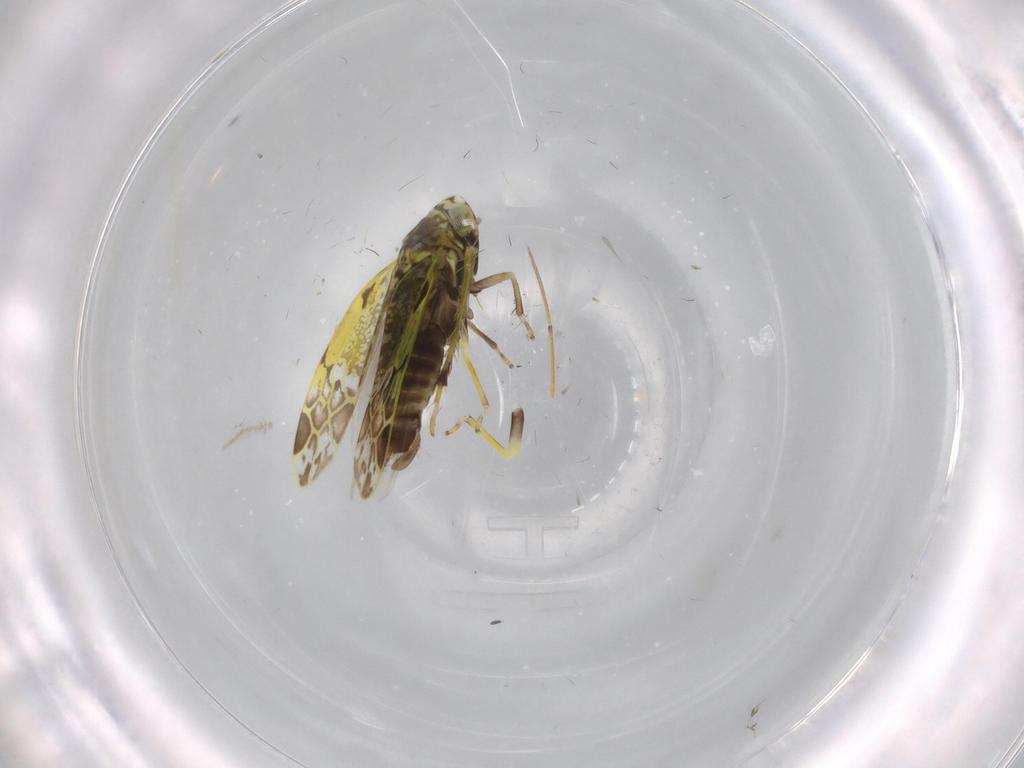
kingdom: Animalia
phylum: Arthropoda
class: Insecta
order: Hemiptera
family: Cicadellidae
